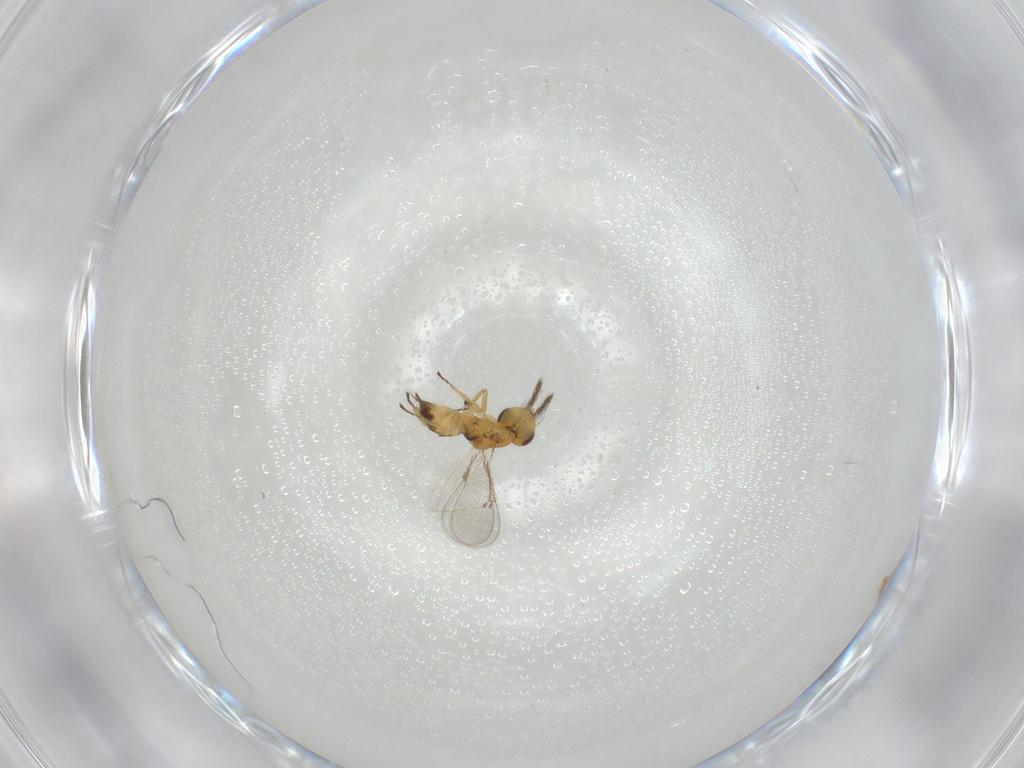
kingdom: Animalia
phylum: Arthropoda
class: Insecta
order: Hymenoptera
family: Eulophidae
